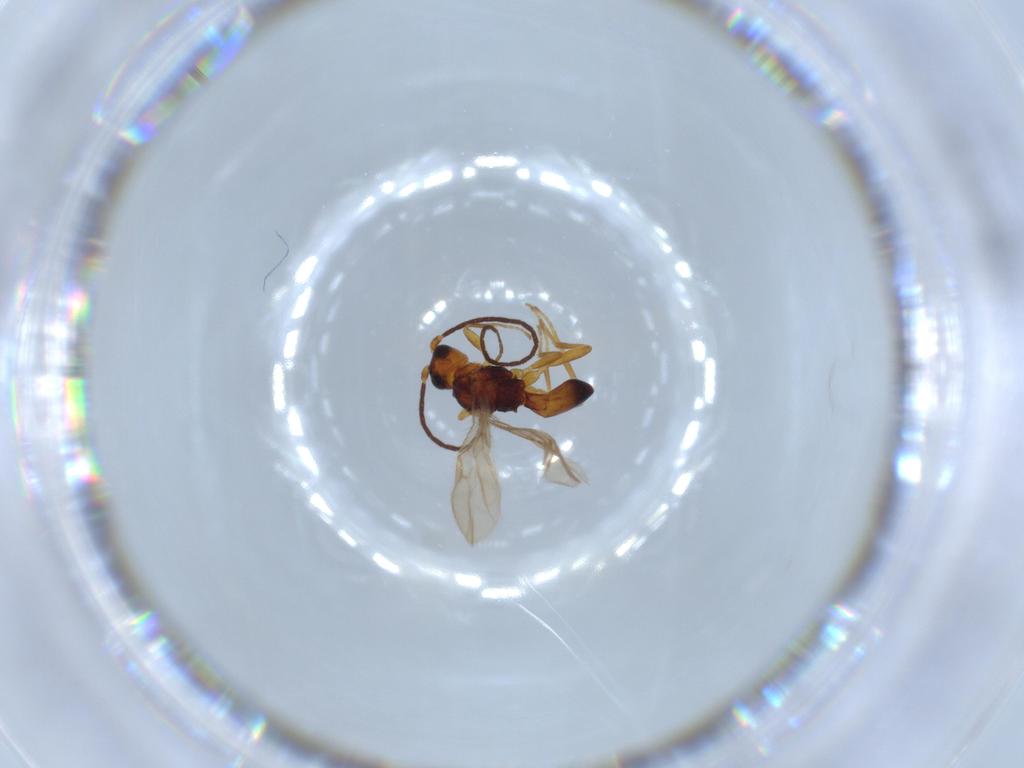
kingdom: Animalia
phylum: Arthropoda
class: Insecta
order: Hymenoptera
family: Braconidae
